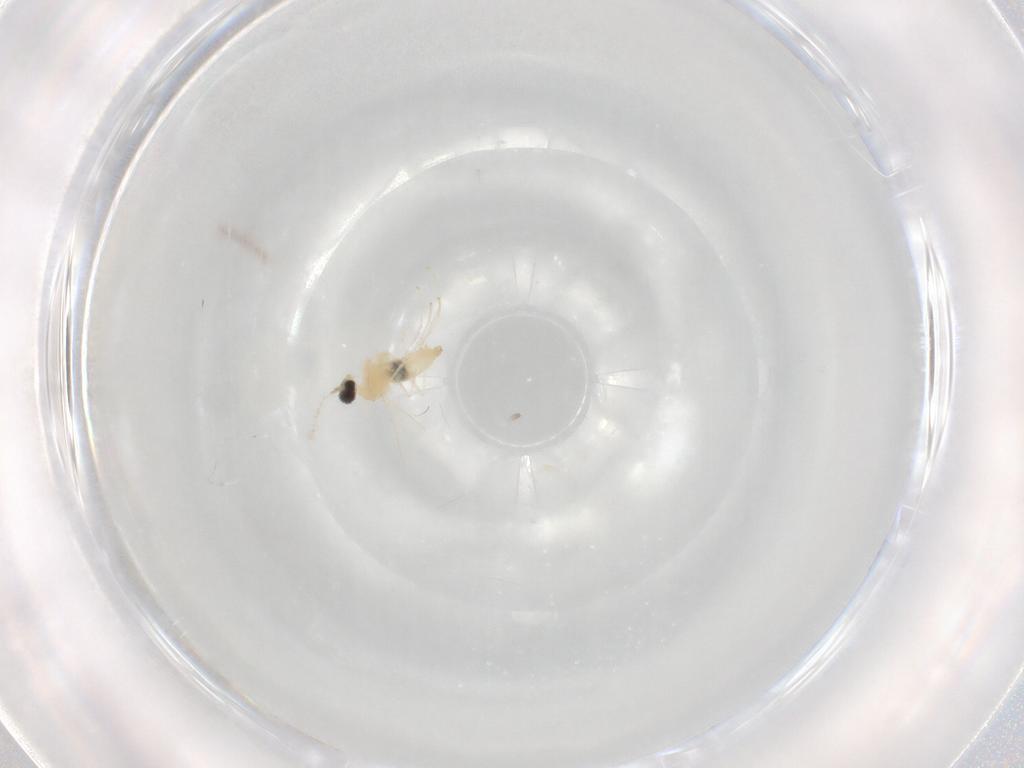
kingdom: Animalia
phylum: Arthropoda
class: Insecta
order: Diptera
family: Cecidomyiidae
